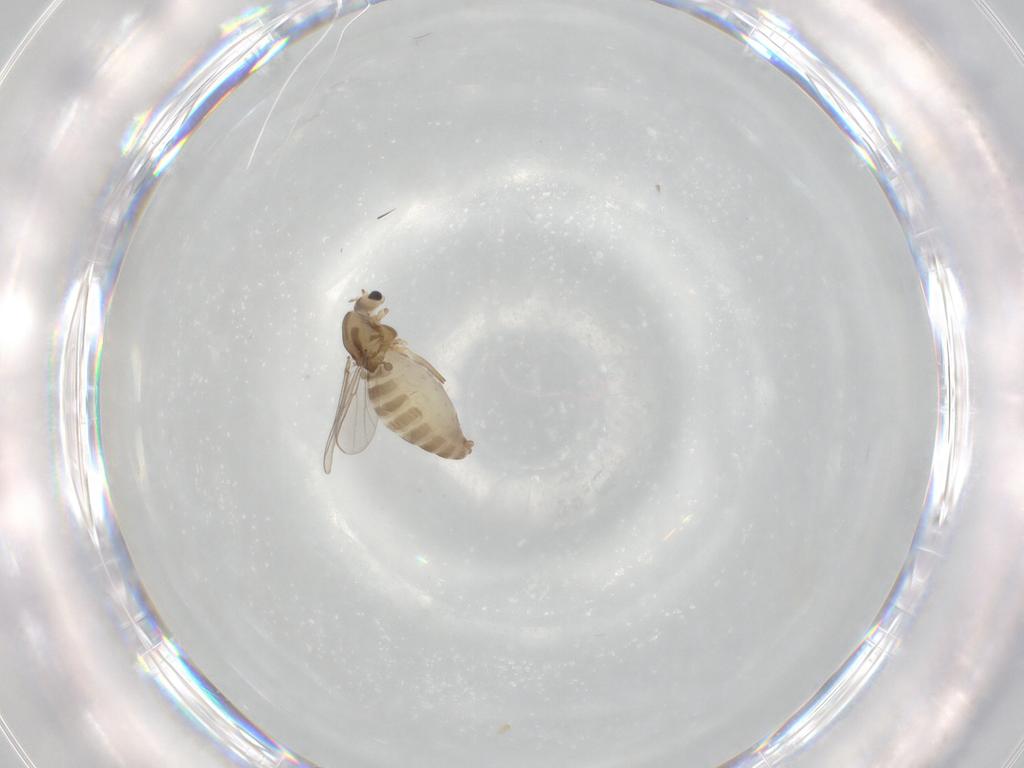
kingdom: Animalia
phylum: Arthropoda
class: Insecta
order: Diptera
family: Chironomidae
